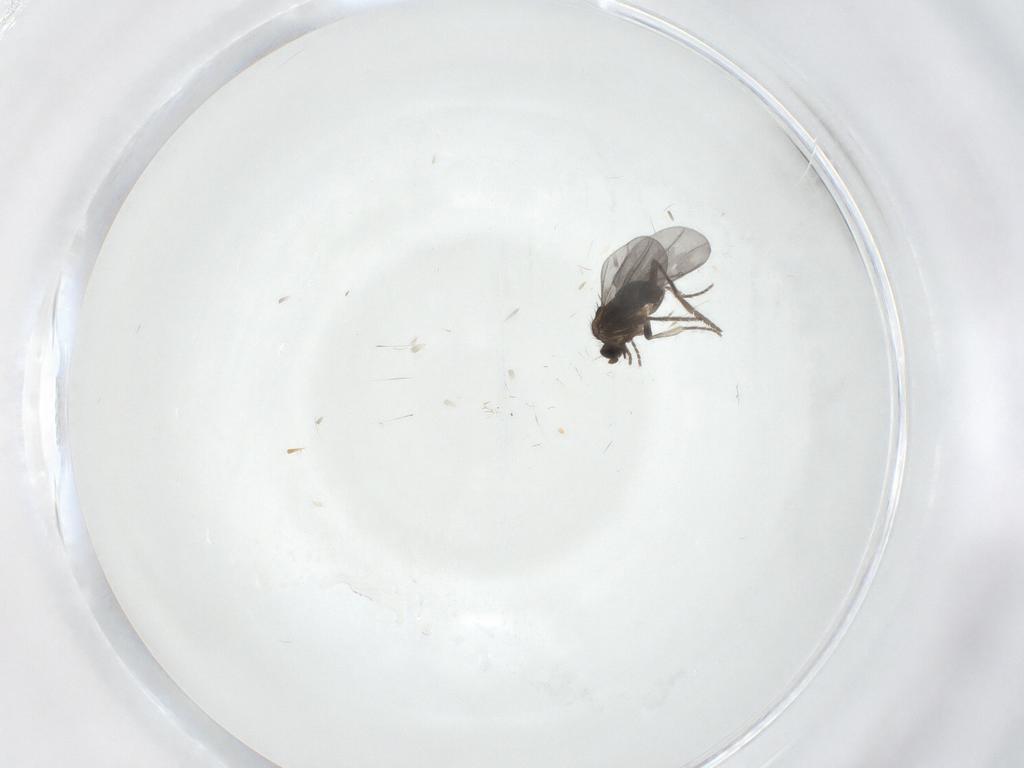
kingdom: Animalia
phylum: Arthropoda
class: Insecta
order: Diptera
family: Phoridae
